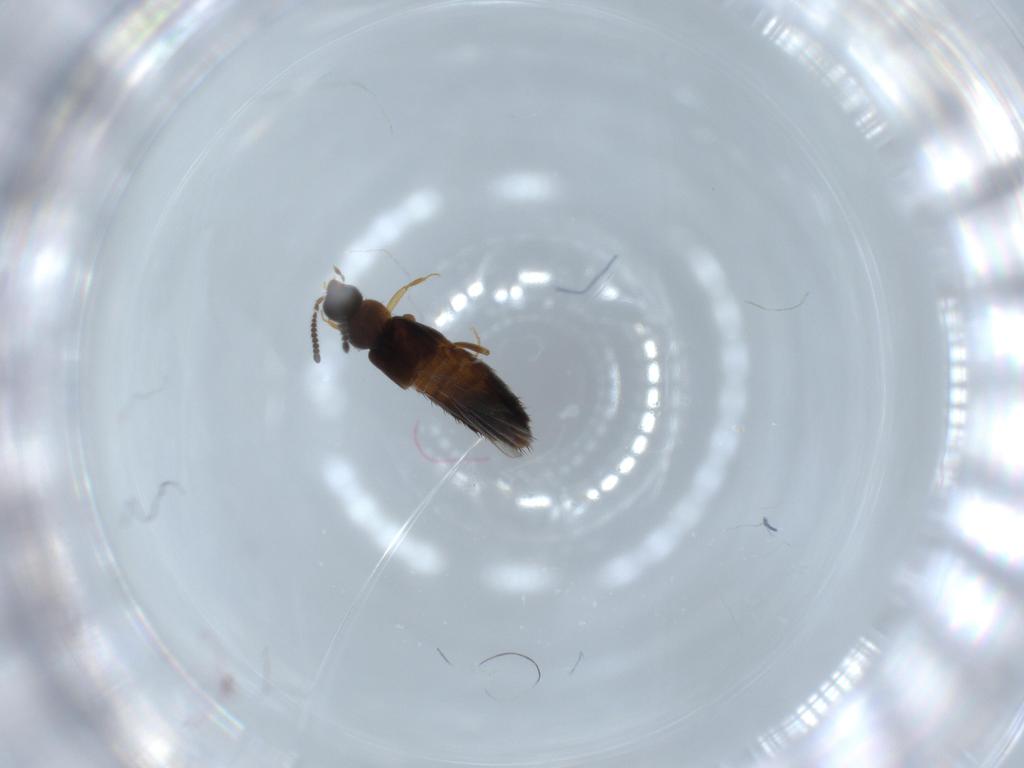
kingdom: Animalia
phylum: Arthropoda
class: Insecta
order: Coleoptera
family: Staphylinidae
